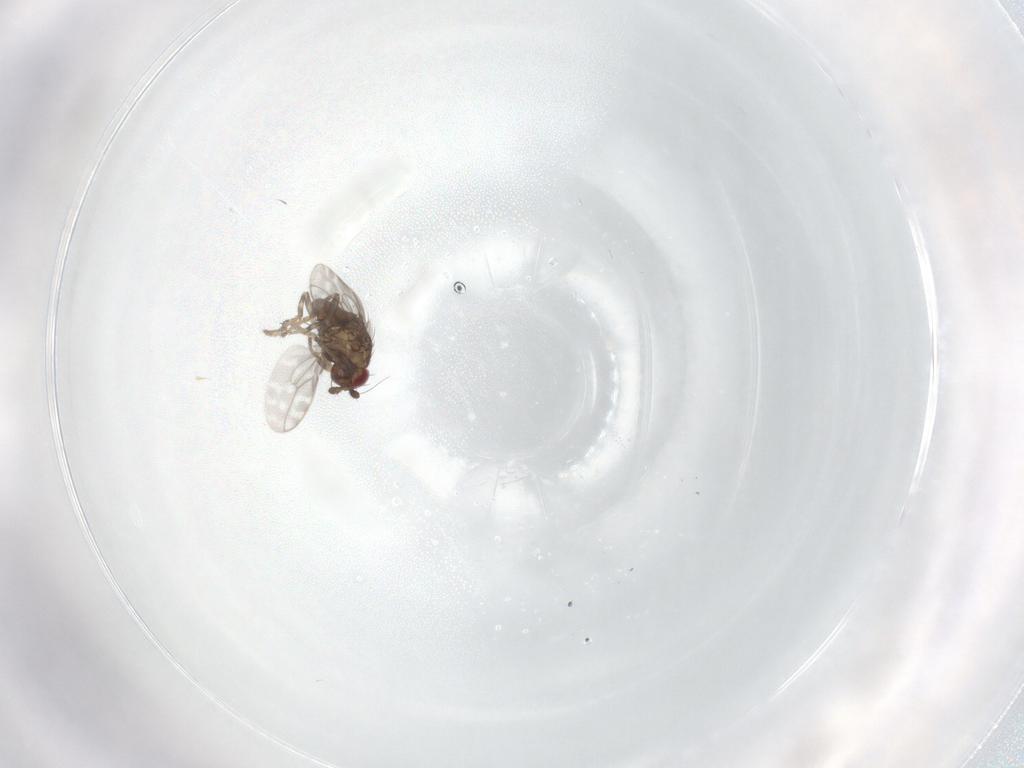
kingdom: Animalia
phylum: Arthropoda
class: Insecta
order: Diptera
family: Sphaeroceridae
